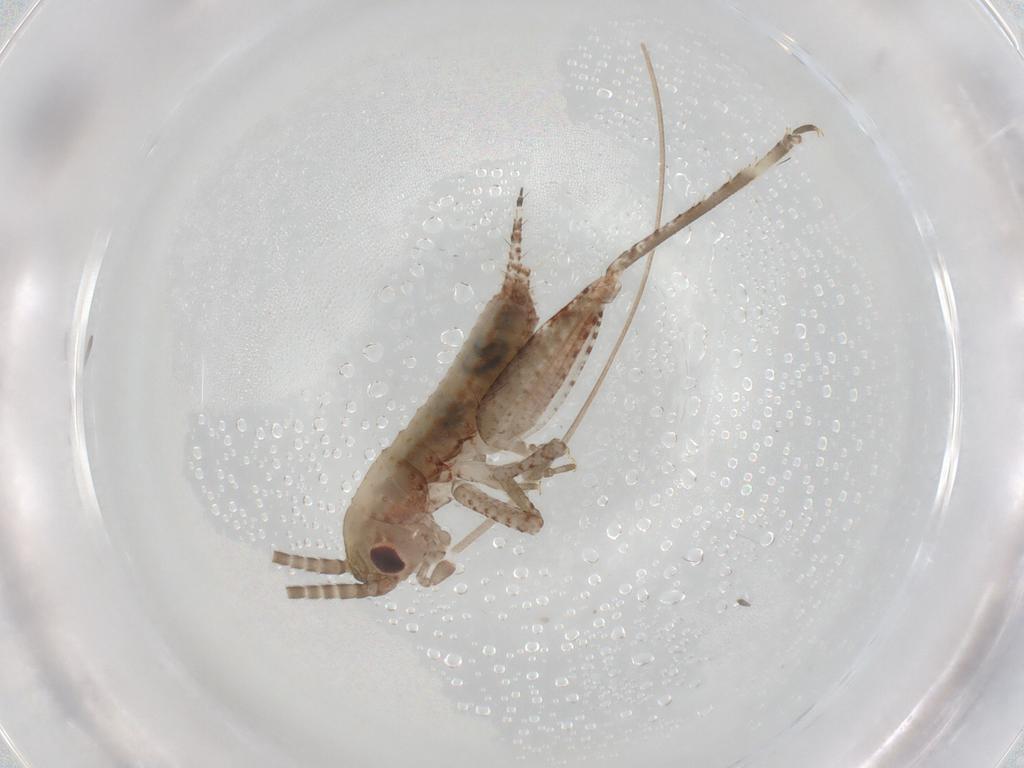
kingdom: Animalia
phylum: Arthropoda
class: Insecta
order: Orthoptera
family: Gryllidae
